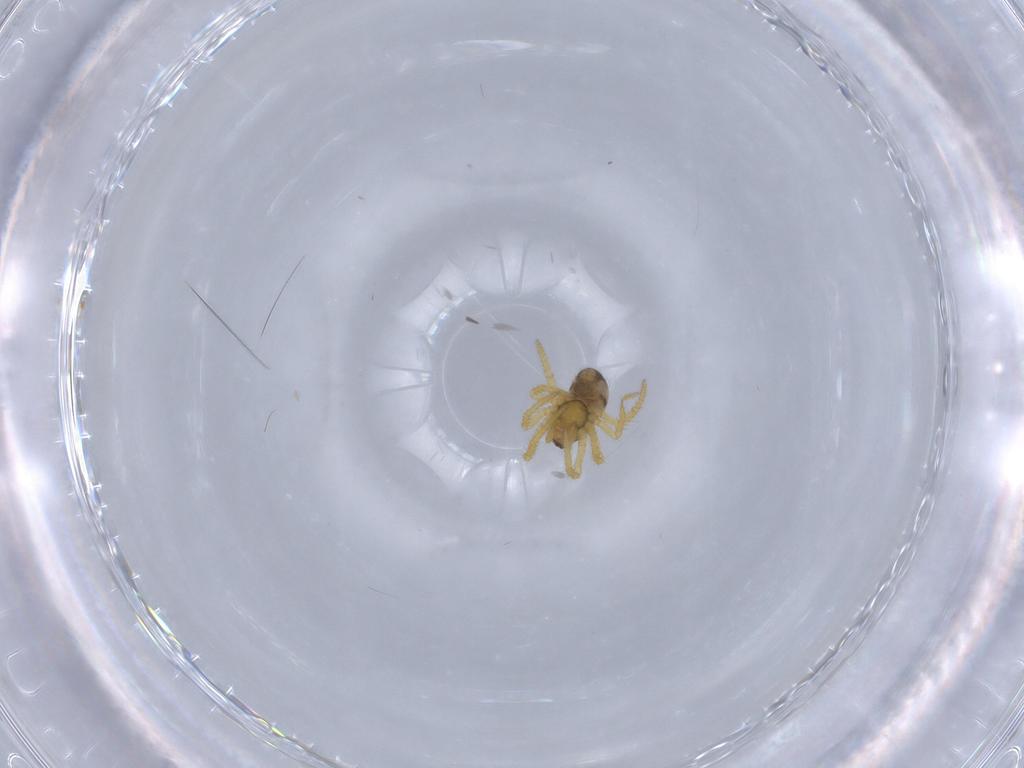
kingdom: Animalia
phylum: Arthropoda
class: Arachnida
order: Araneae
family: Theridiidae
